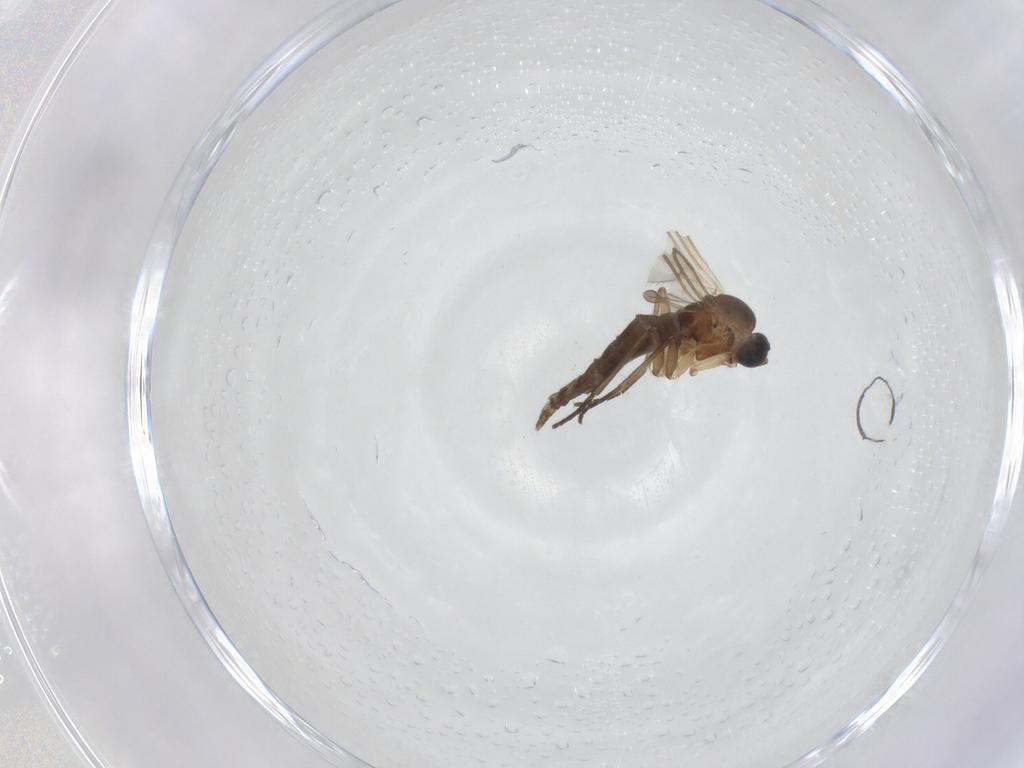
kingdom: Animalia
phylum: Arthropoda
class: Insecta
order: Diptera
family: Sciaridae
